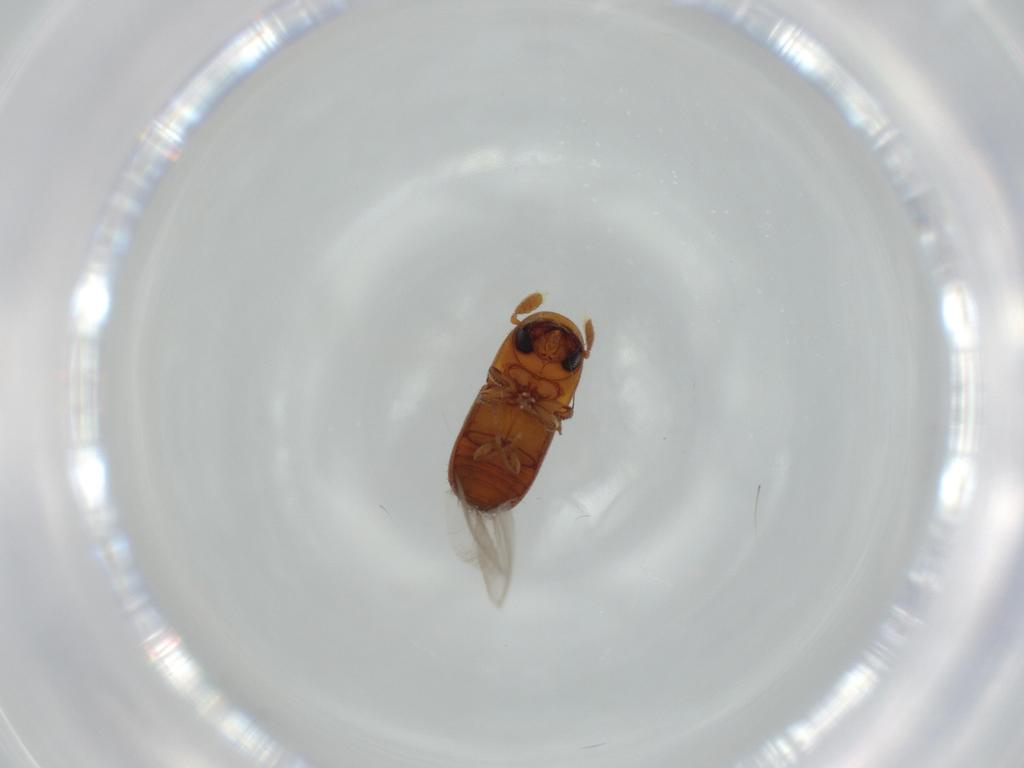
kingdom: Animalia
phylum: Arthropoda
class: Insecta
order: Coleoptera
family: Curculionidae
